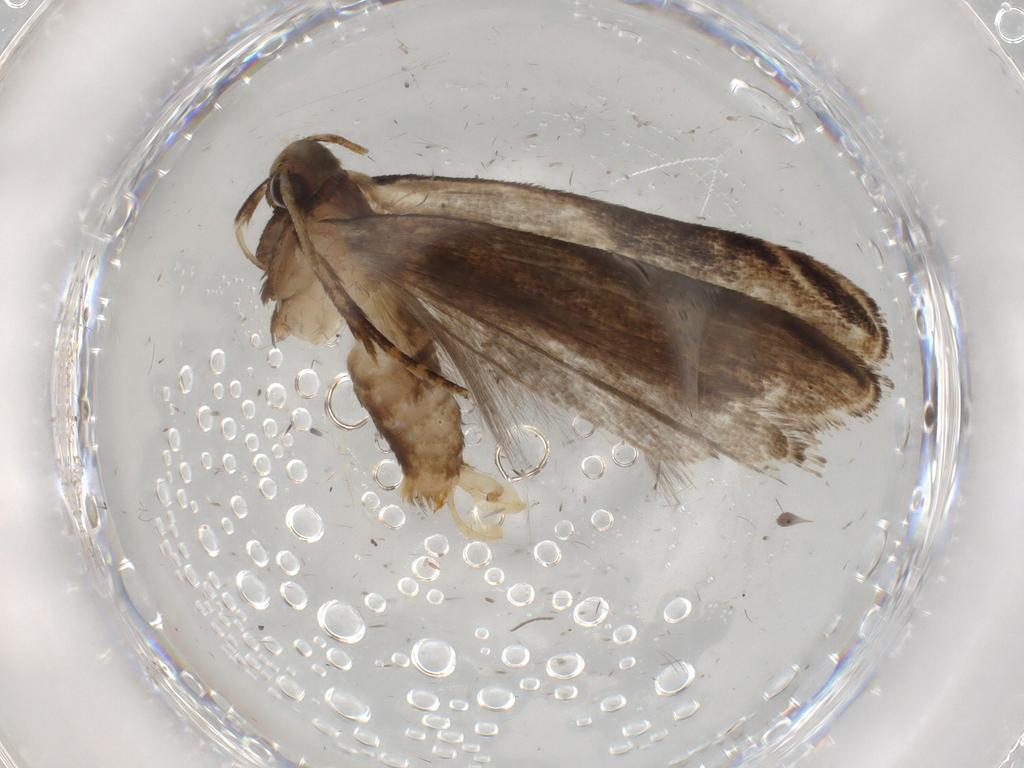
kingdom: Animalia
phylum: Arthropoda
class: Insecta
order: Lepidoptera
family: Gelechiidae
